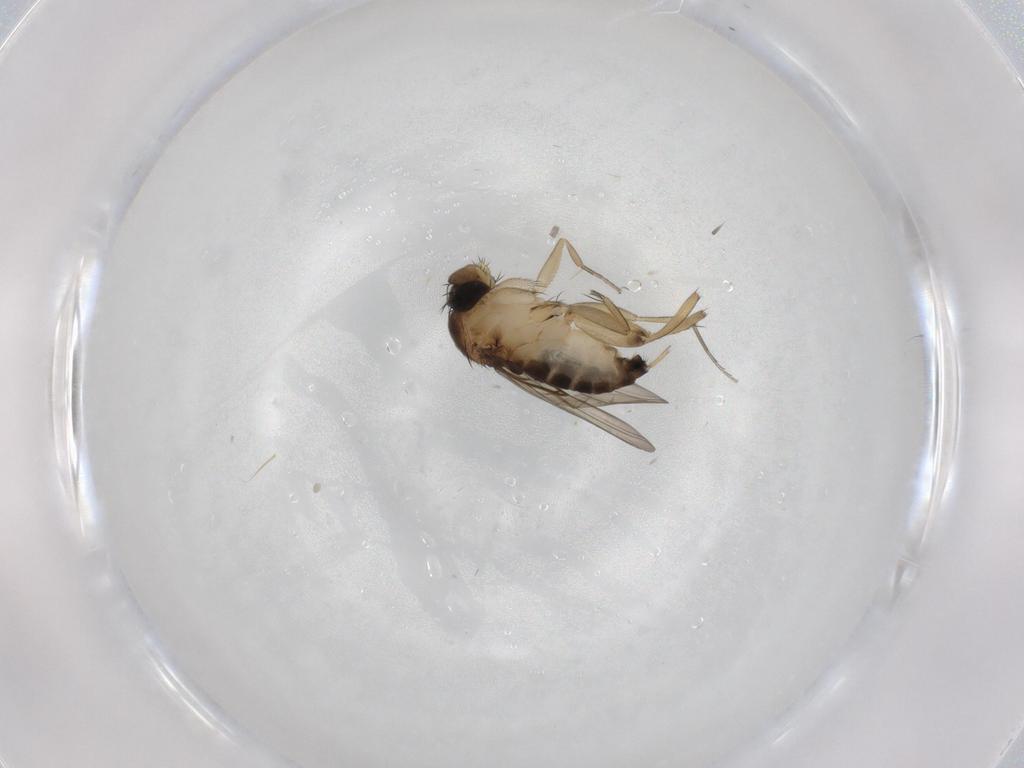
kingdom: Animalia
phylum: Arthropoda
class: Insecta
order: Diptera
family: Phoridae
